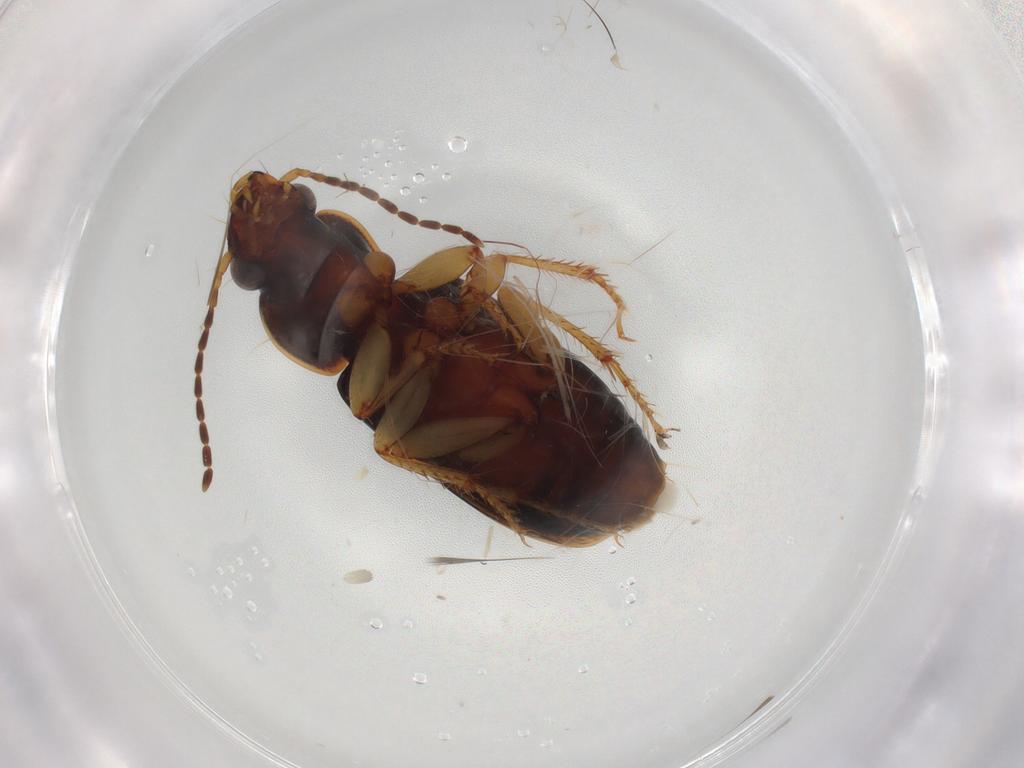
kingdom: Animalia
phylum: Arthropoda
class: Insecta
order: Coleoptera
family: Carabidae
